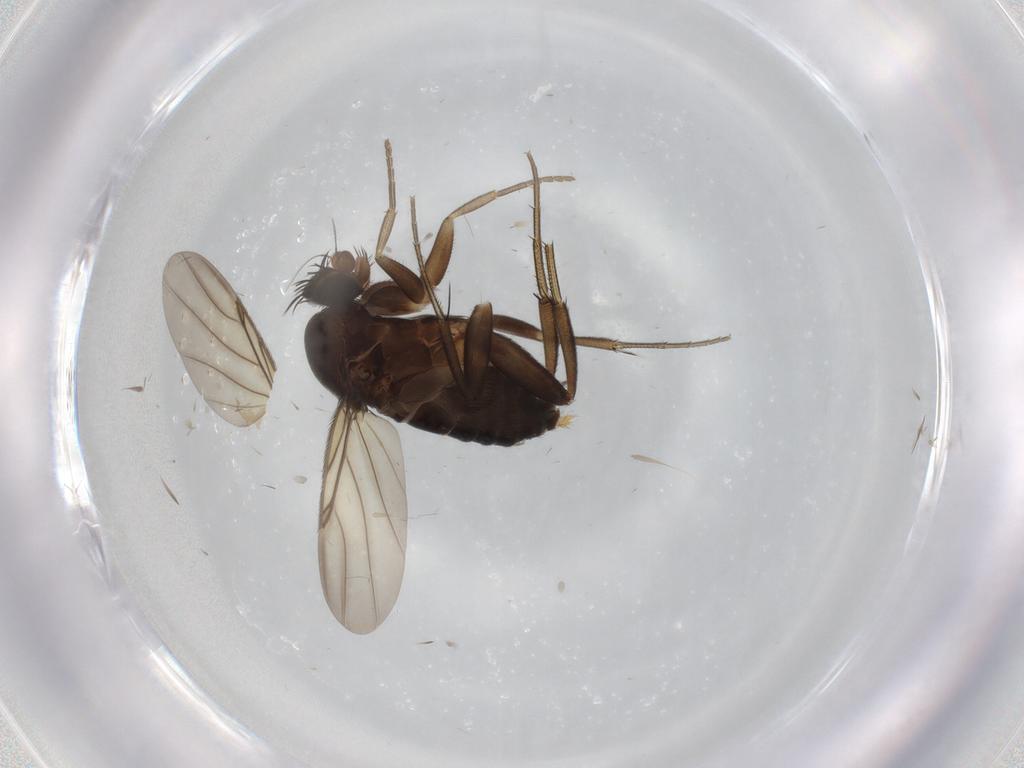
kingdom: Animalia
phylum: Arthropoda
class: Insecta
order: Diptera
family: Phoridae
